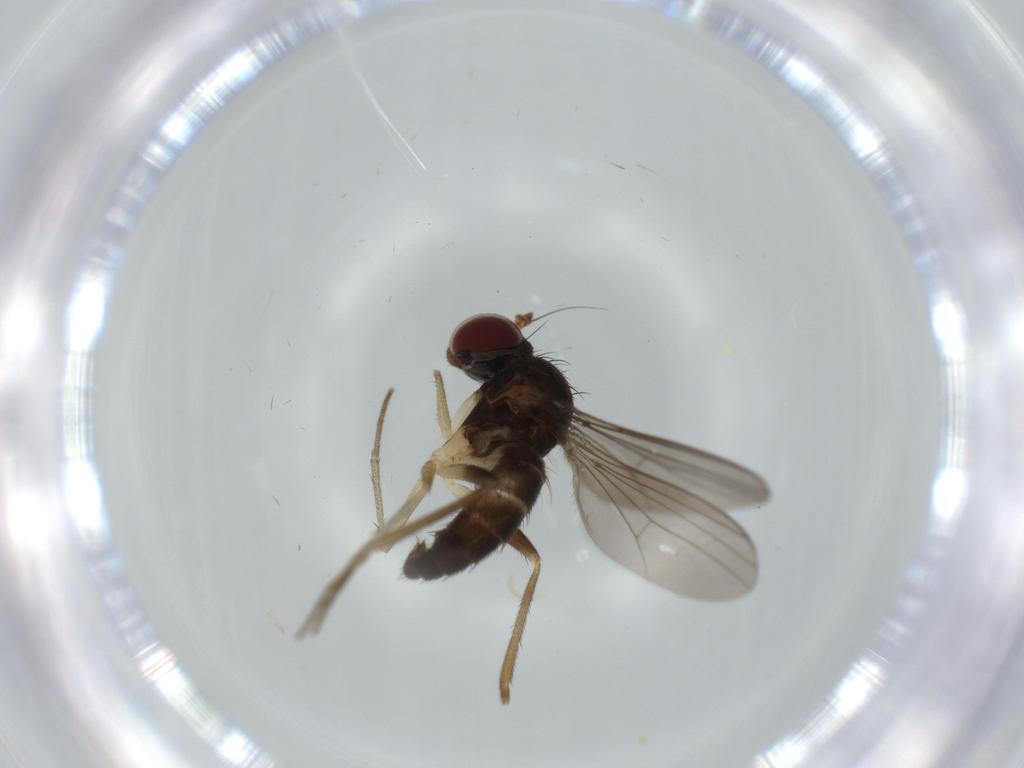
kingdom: Animalia
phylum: Arthropoda
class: Insecta
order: Diptera
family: Dolichopodidae
